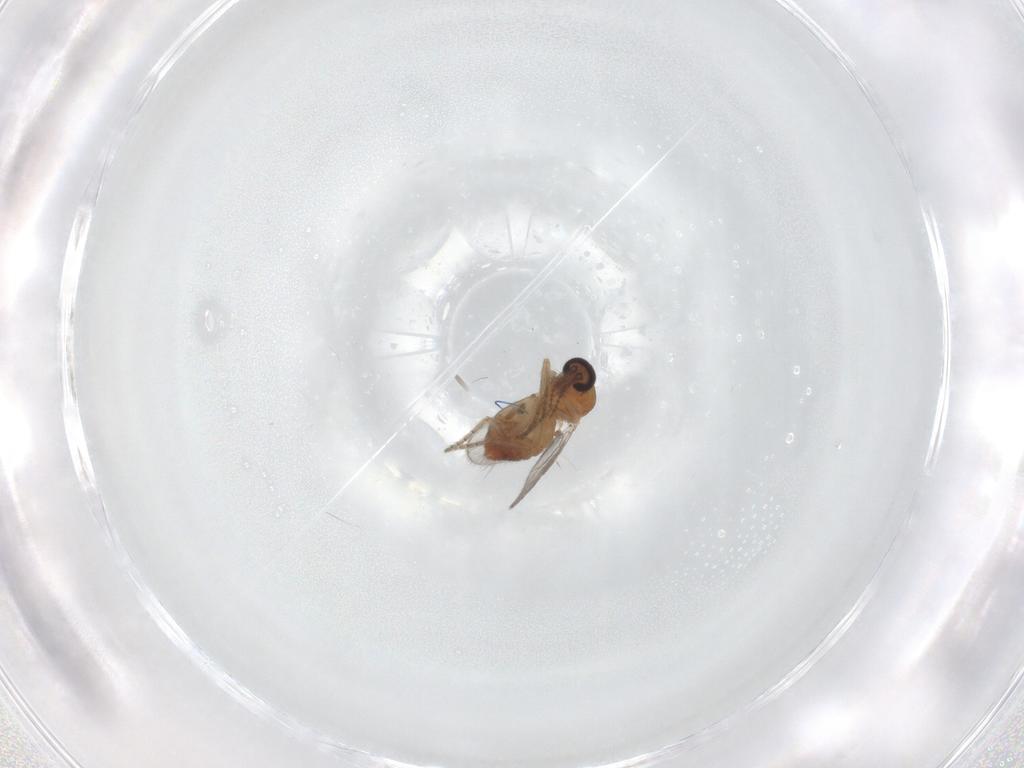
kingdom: Animalia
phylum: Arthropoda
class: Insecta
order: Diptera
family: Ceratopogonidae
